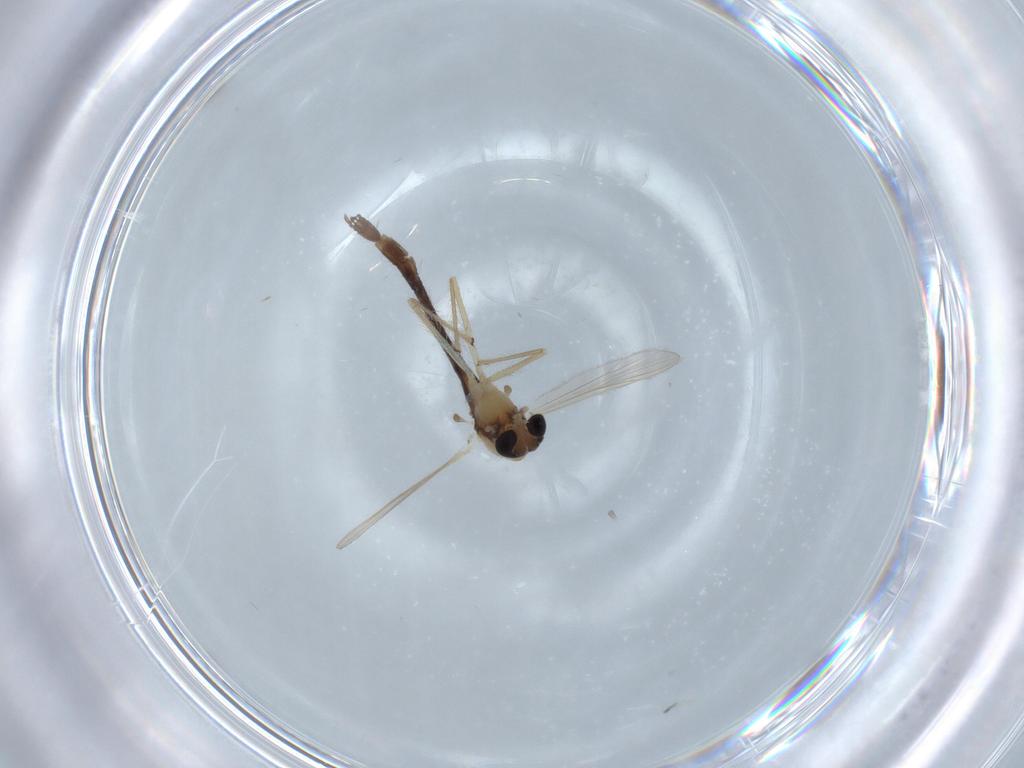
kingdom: Animalia
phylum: Arthropoda
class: Insecta
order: Diptera
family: Chironomidae
